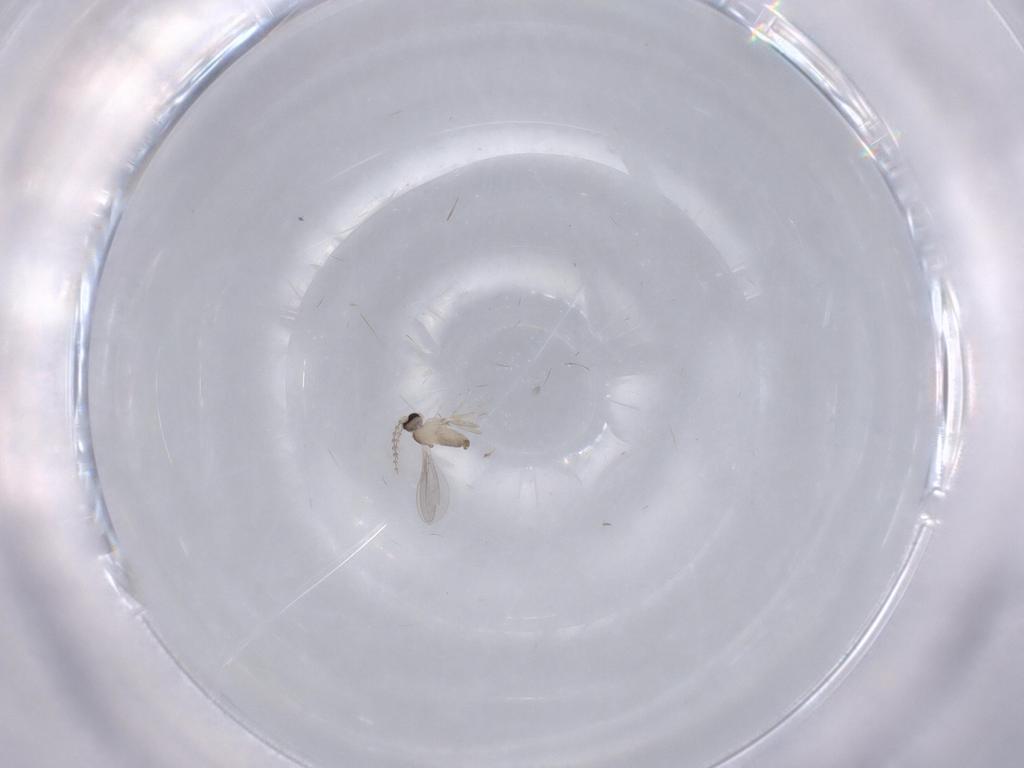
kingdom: Animalia
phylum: Arthropoda
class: Insecta
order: Diptera
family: Cecidomyiidae
